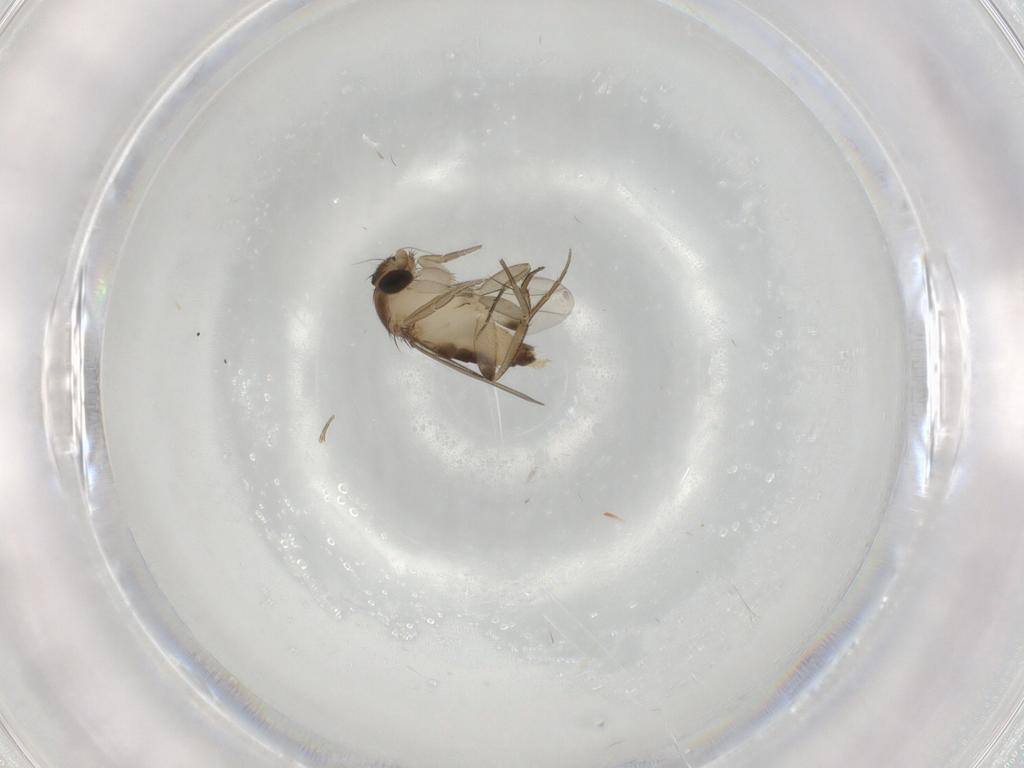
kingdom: Animalia
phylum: Arthropoda
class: Insecta
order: Diptera
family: Phoridae
